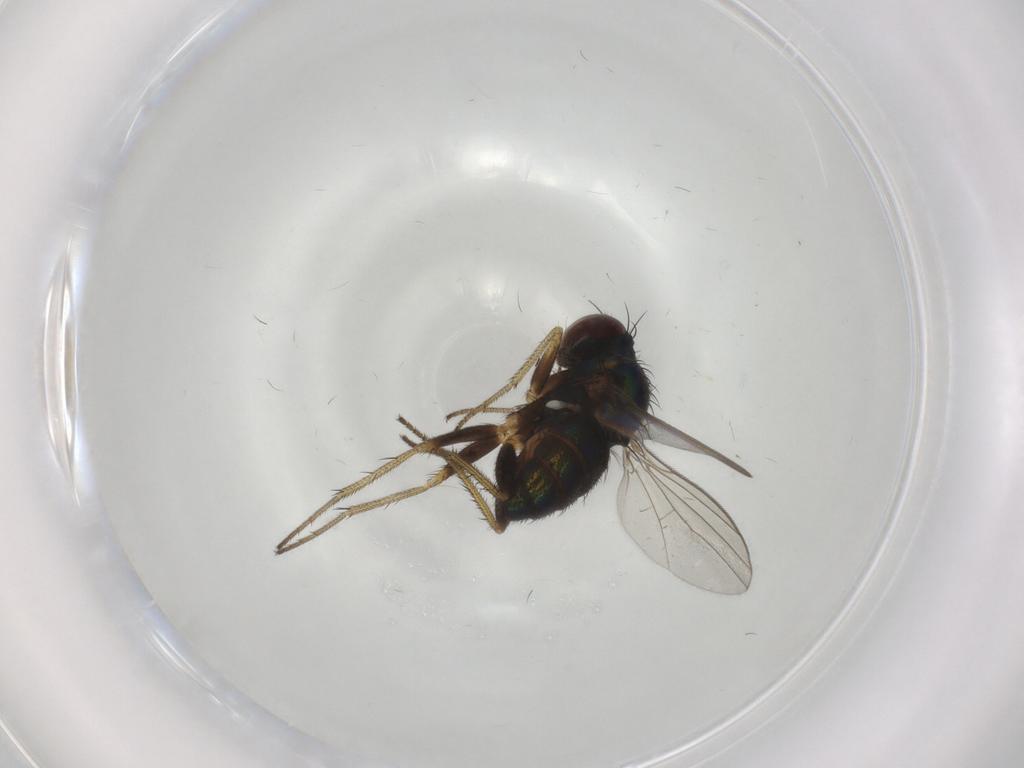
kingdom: Animalia
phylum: Arthropoda
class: Insecta
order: Diptera
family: Dolichopodidae
